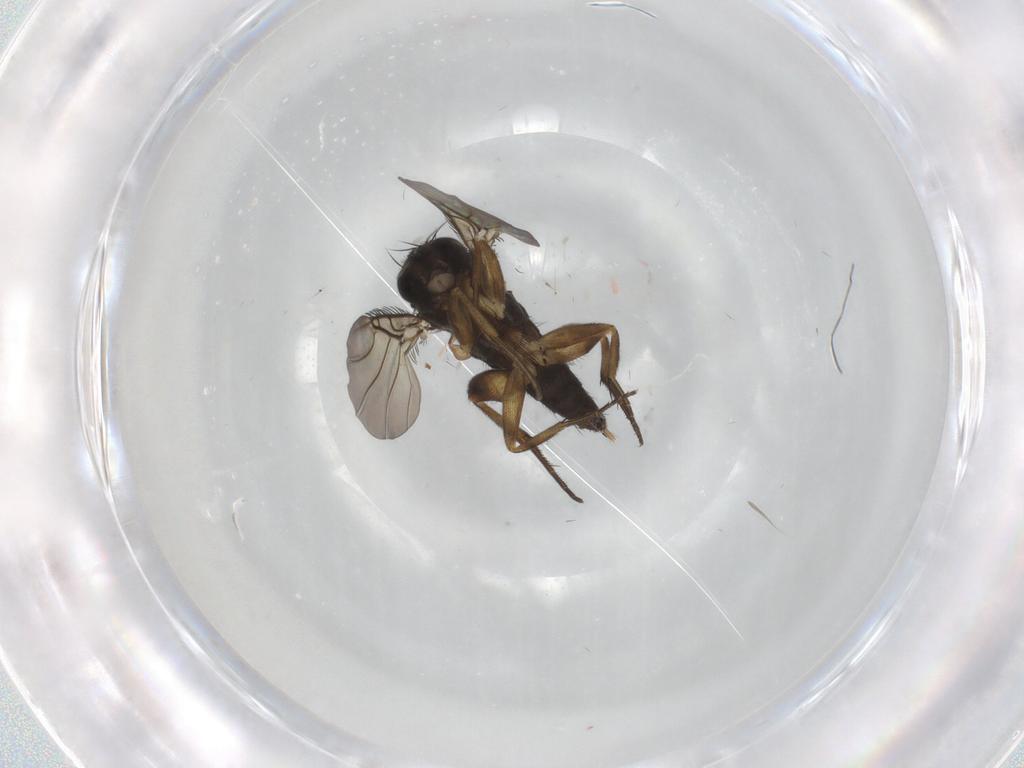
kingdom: Animalia
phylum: Arthropoda
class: Insecta
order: Diptera
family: Phoridae
